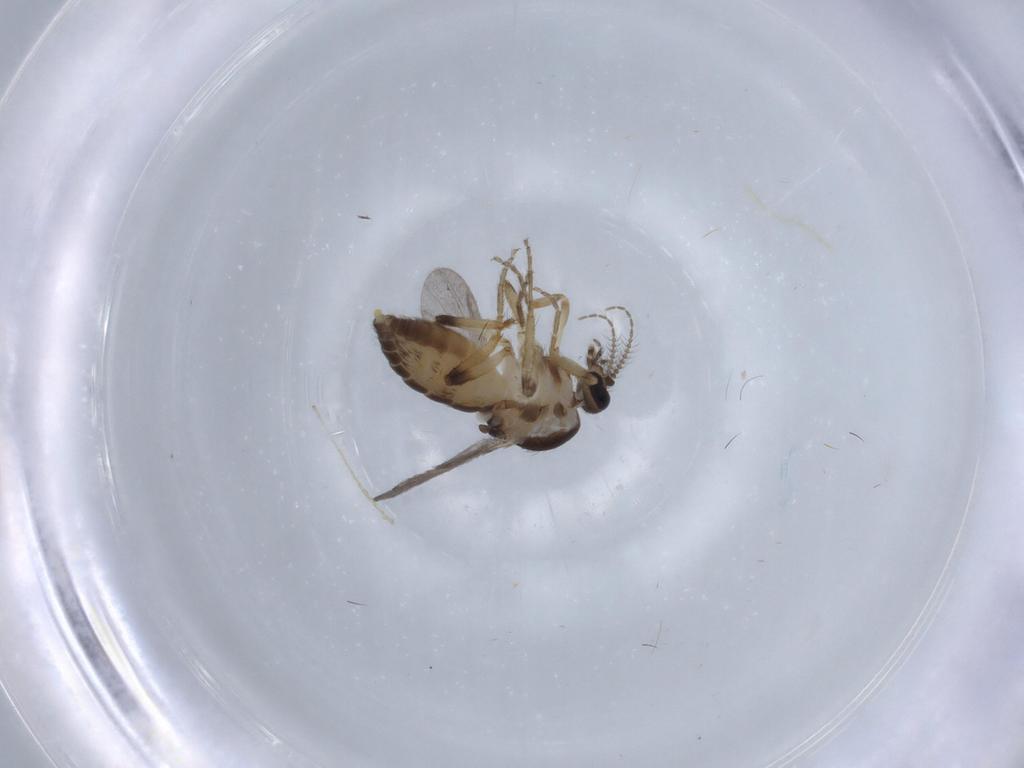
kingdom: Animalia
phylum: Arthropoda
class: Insecta
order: Diptera
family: Ceratopogonidae
